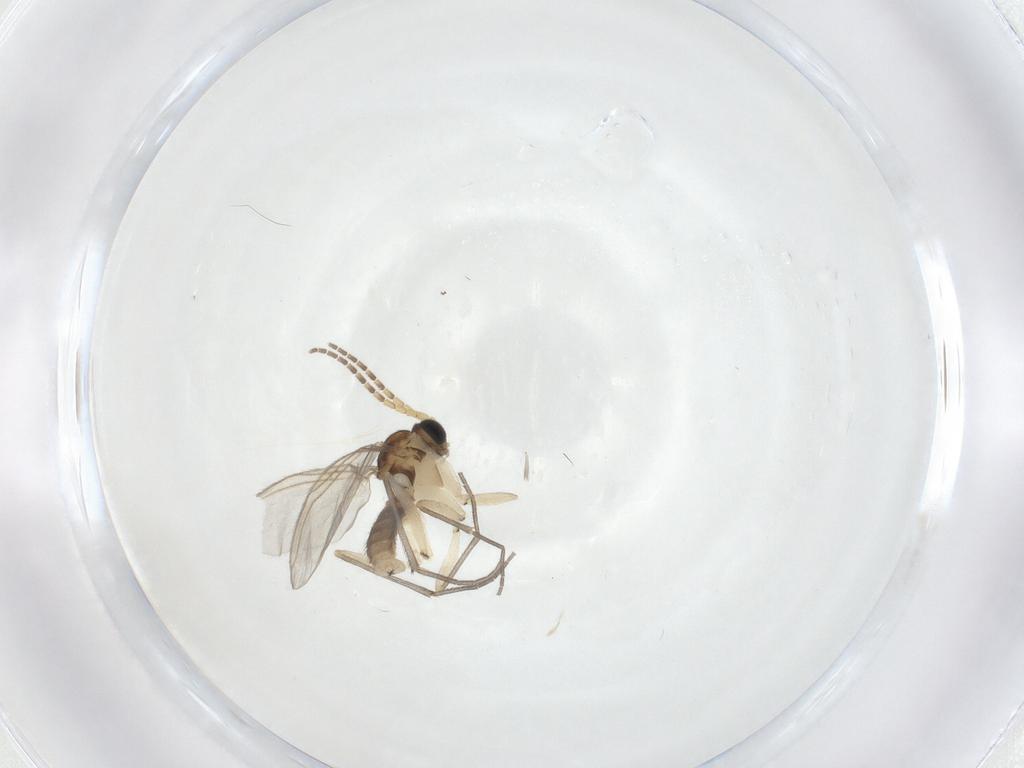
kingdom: Animalia
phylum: Arthropoda
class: Insecta
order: Diptera
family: Sciaridae
